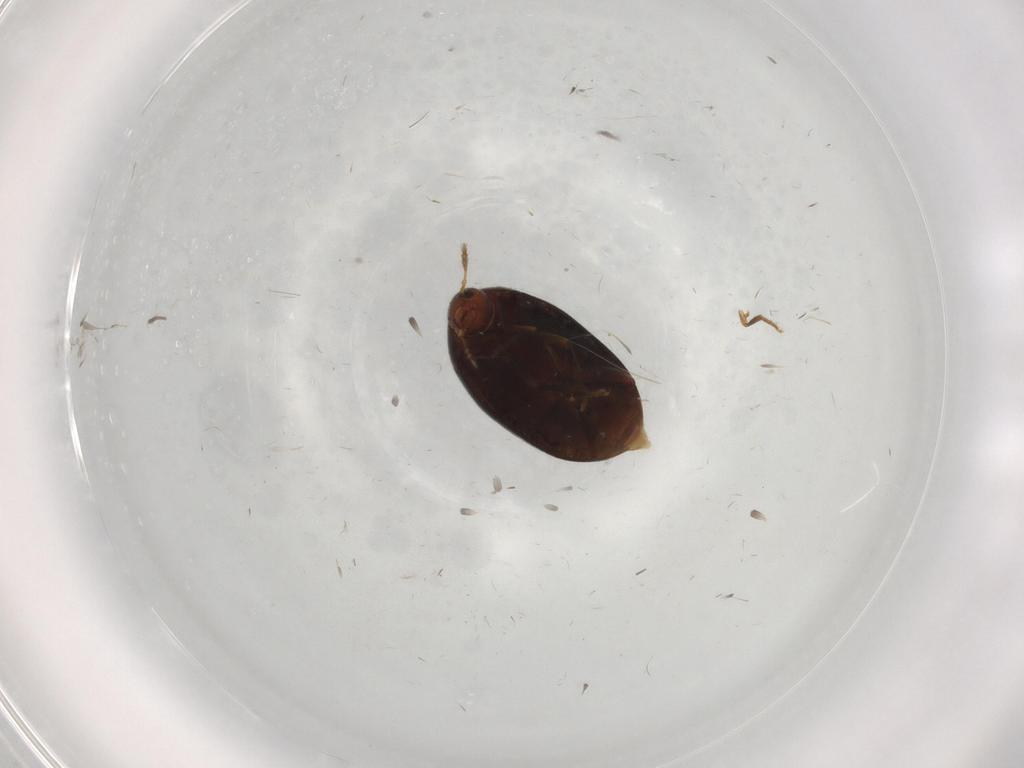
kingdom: Animalia
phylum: Arthropoda
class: Insecta
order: Coleoptera
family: Melandryidae
